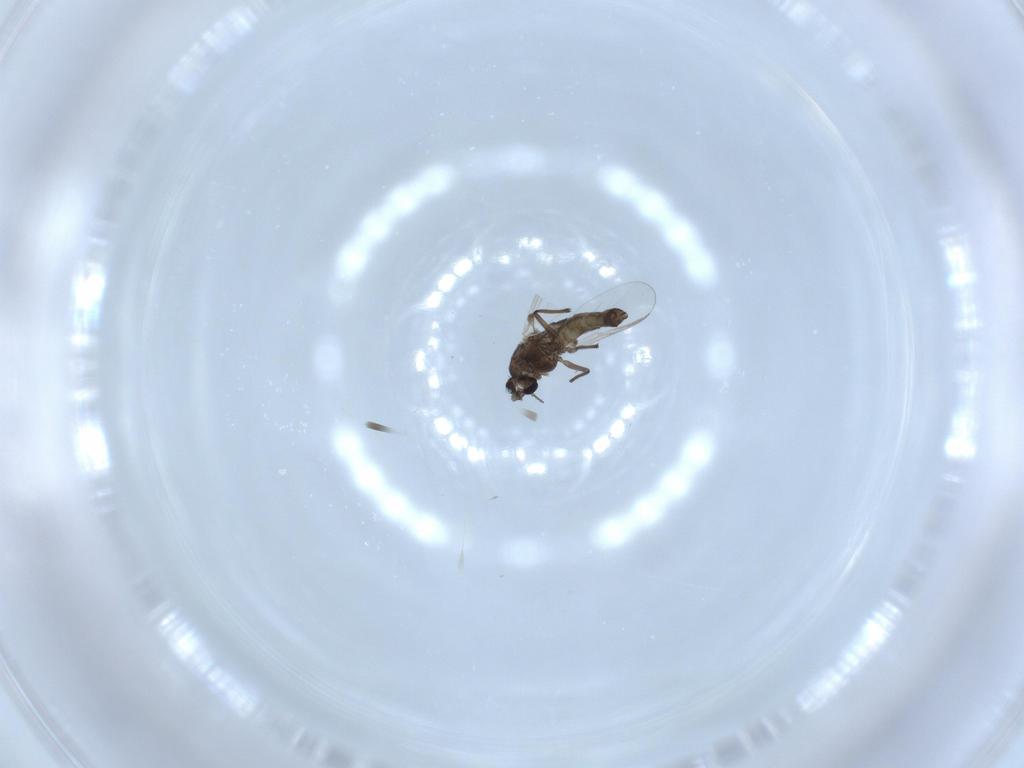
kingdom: Animalia
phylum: Arthropoda
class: Insecta
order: Diptera
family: Chironomidae
